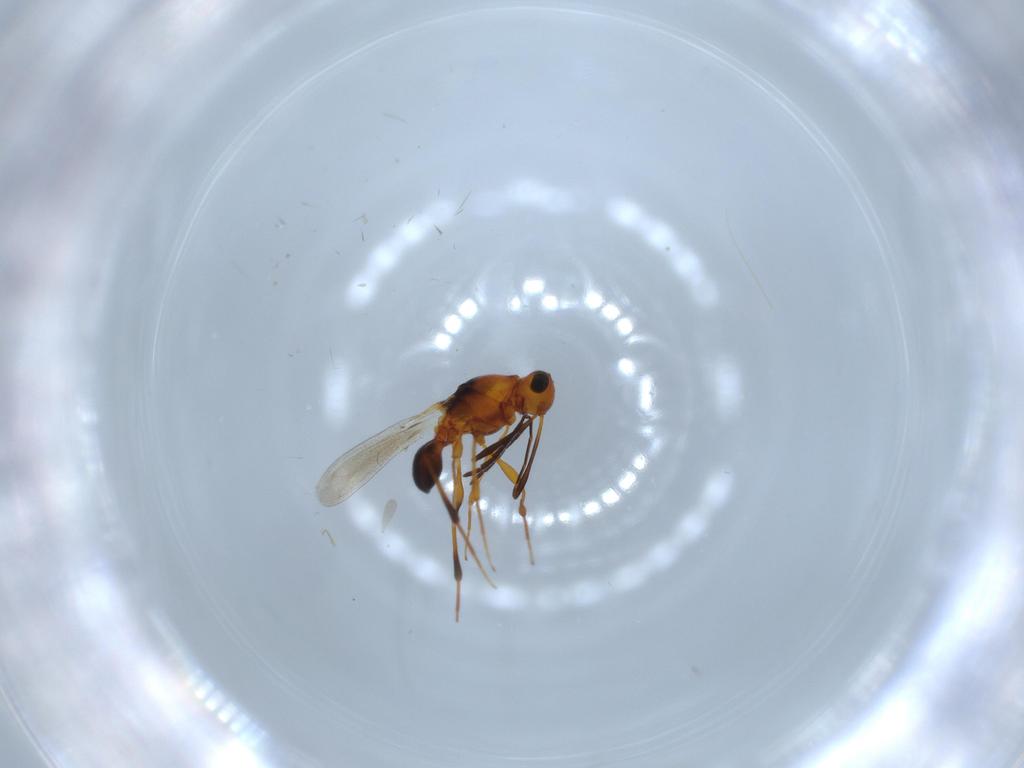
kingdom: Animalia
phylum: Arthropoda
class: Insecta
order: Hymenoptera
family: Platygastridae
